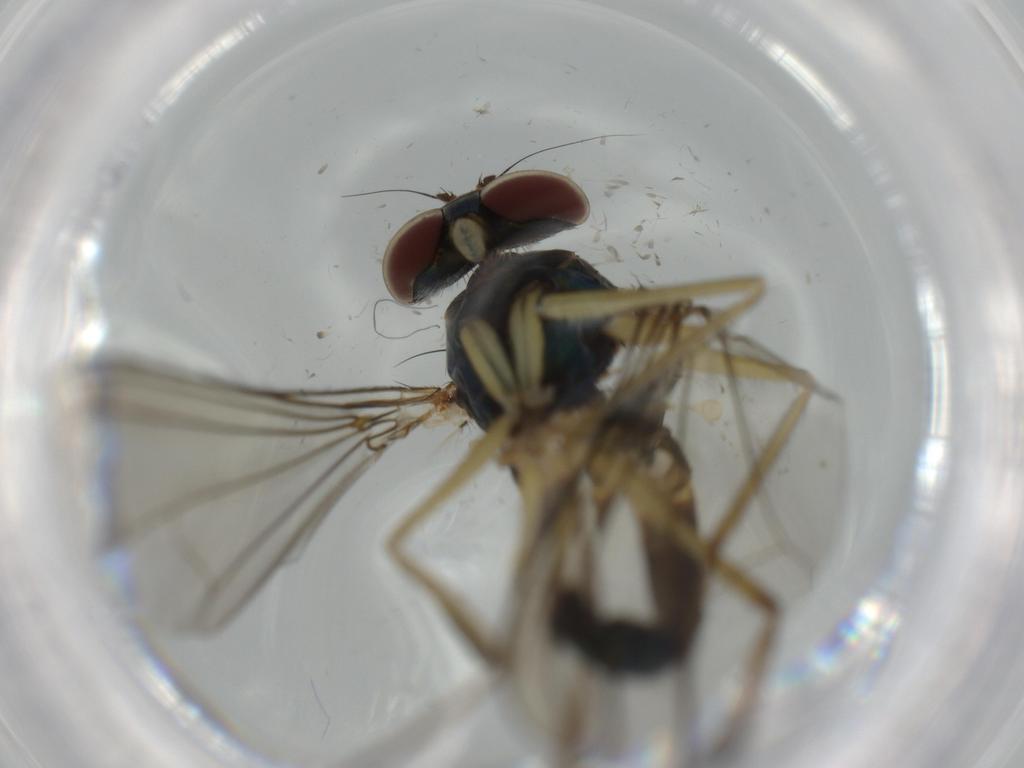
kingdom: Animalia
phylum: Arthropoda
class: Insecta
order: Diptera
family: Dolichopodidae
